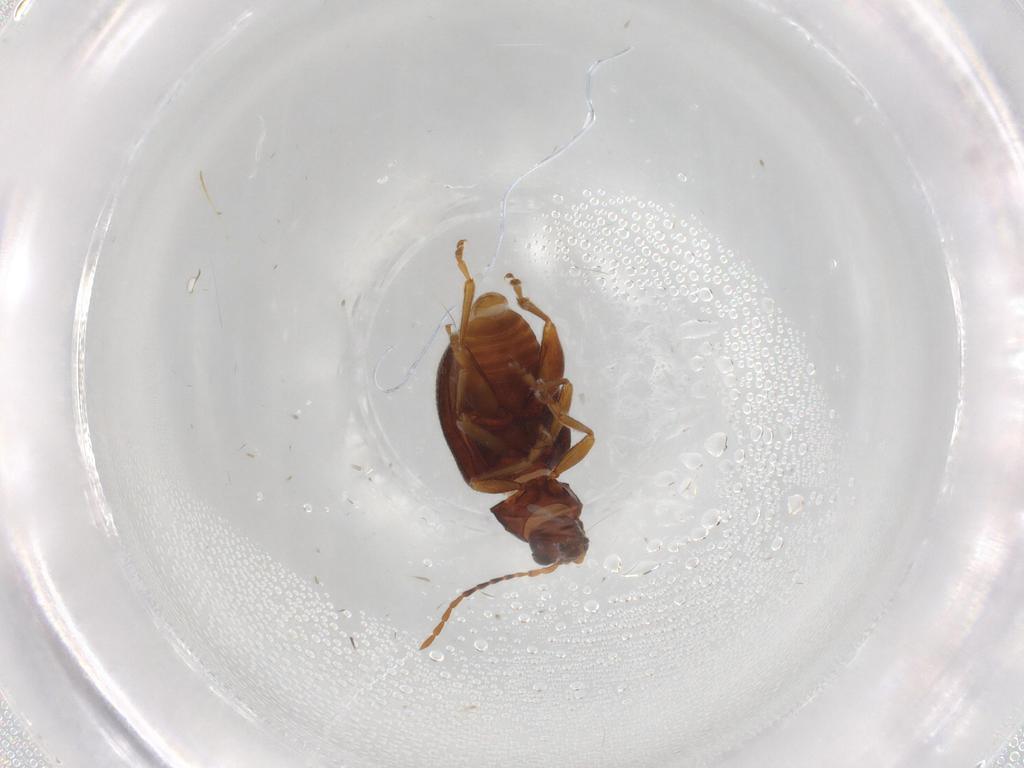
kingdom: Animalia
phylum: Arthropoda
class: Insecta
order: Coleoptera
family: Chrysomelidae
